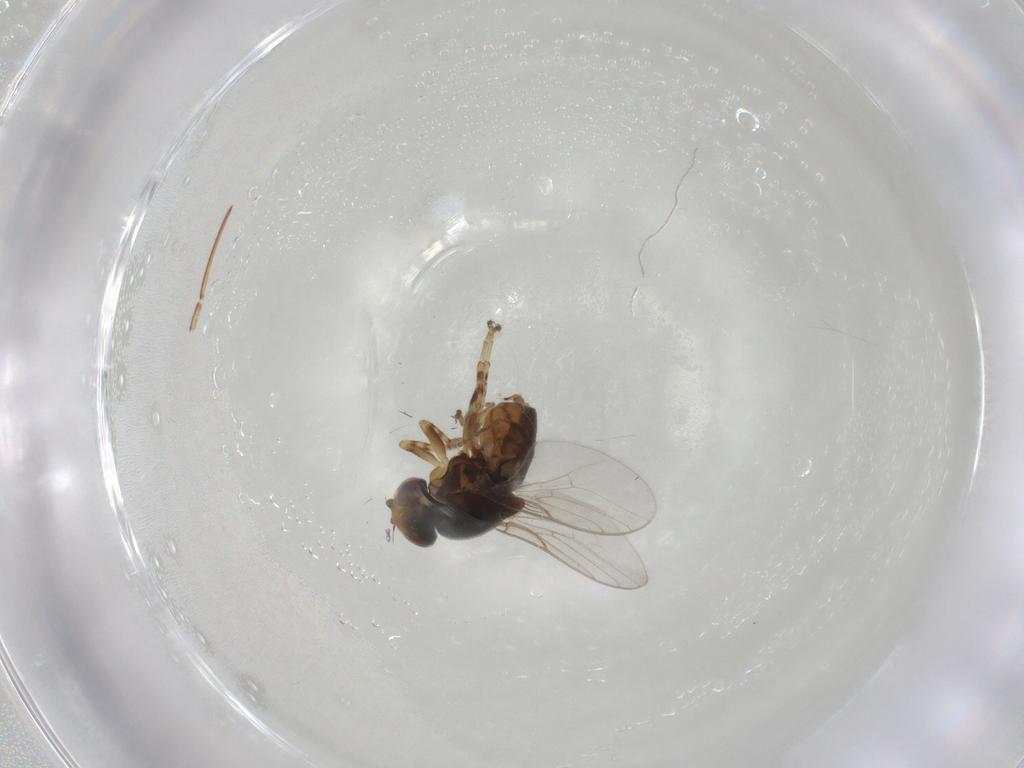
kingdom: Animalia
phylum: Arthropoda
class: Insecta
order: Diptera
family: Chloropidae
